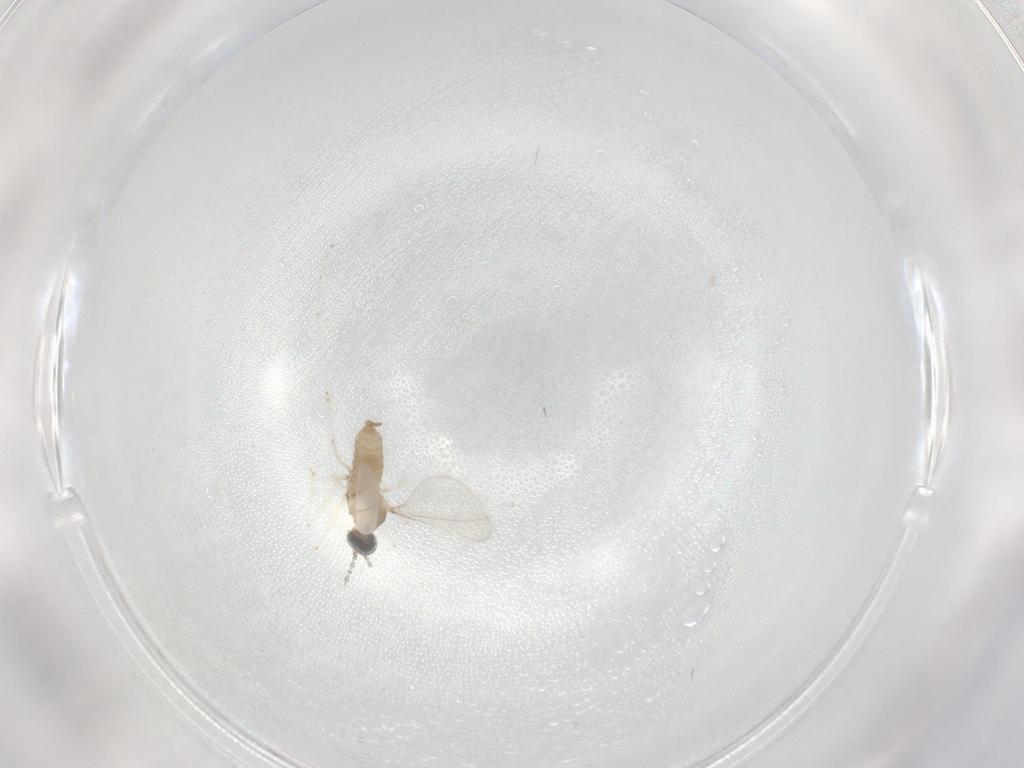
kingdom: Animalia
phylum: Arthropoda
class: Insecta
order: Diptera
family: Cecidomyiidae
